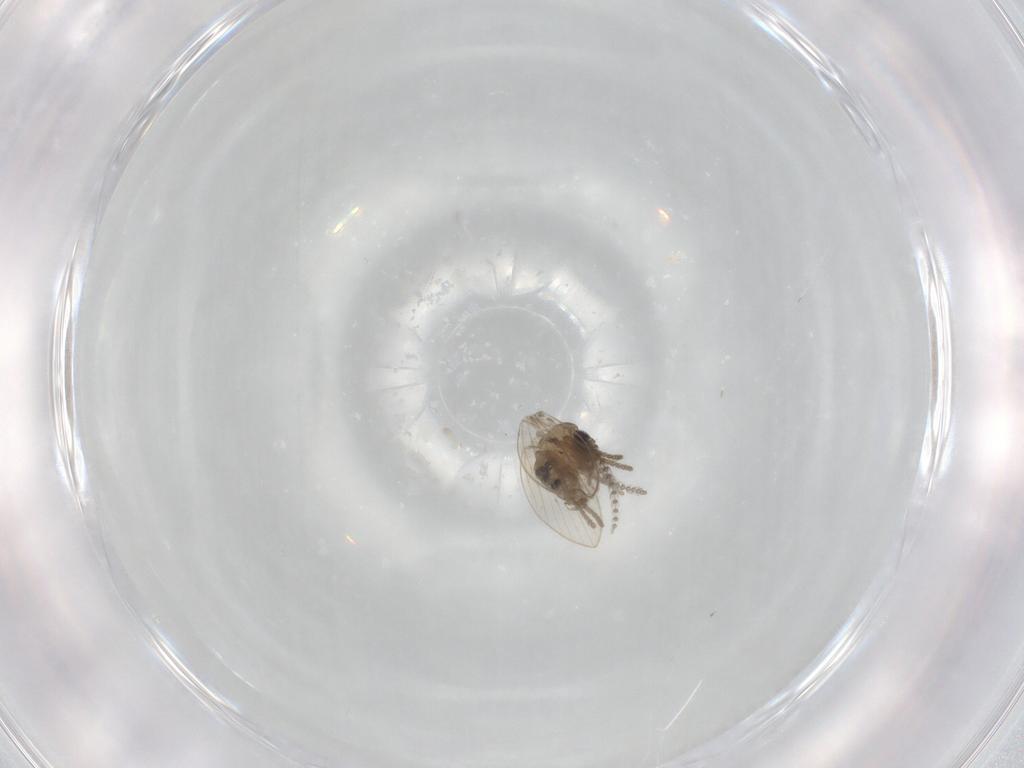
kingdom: Animalia
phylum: Arthropoda
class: Insecta
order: Diptera
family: Psychodidae
